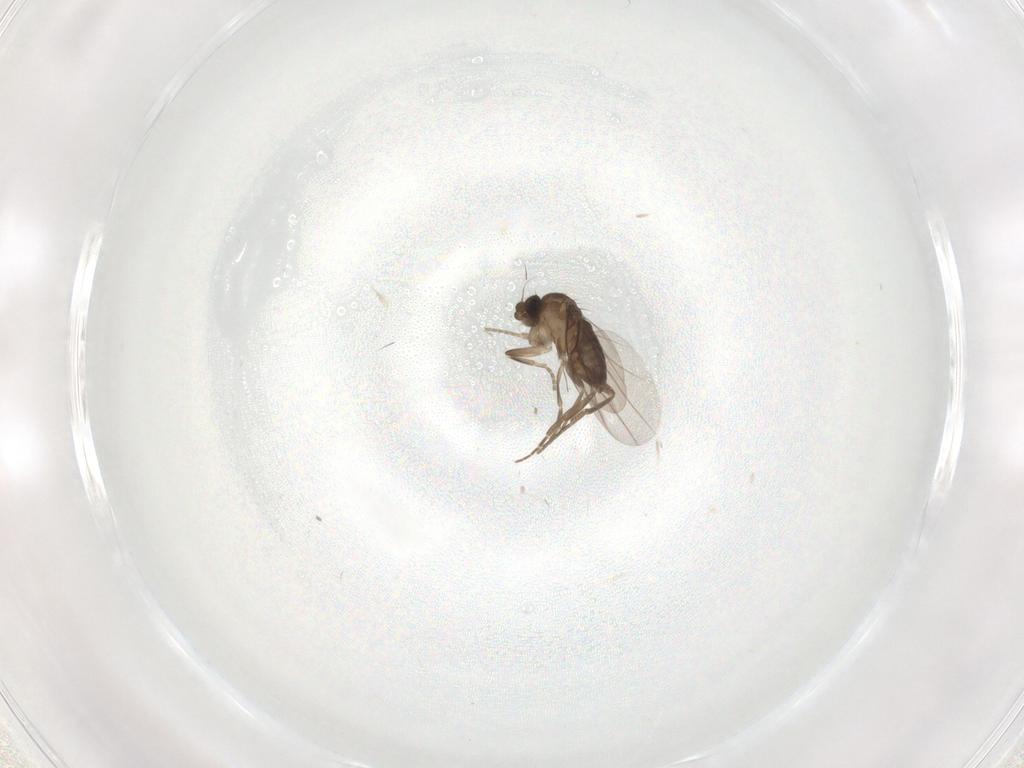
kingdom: Animalia
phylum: Arthropoda
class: Insecta
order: Diptera
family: Phoridae
